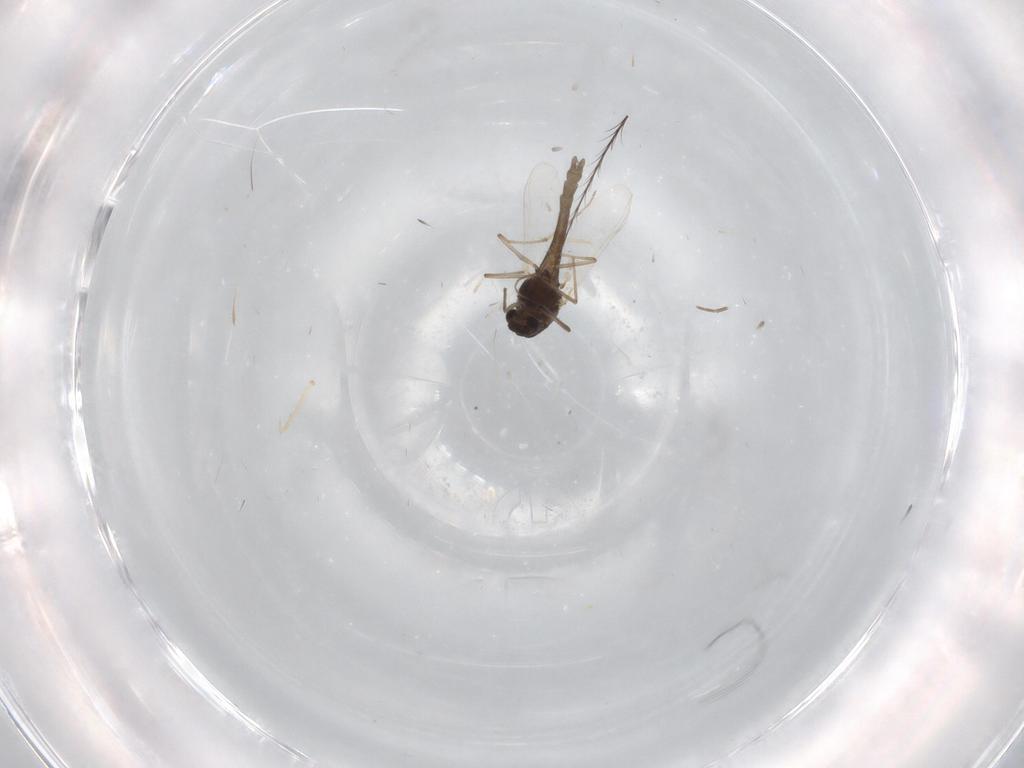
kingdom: Animalia
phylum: Arthropoda
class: Insecta
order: Diptera
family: Chironomidae
